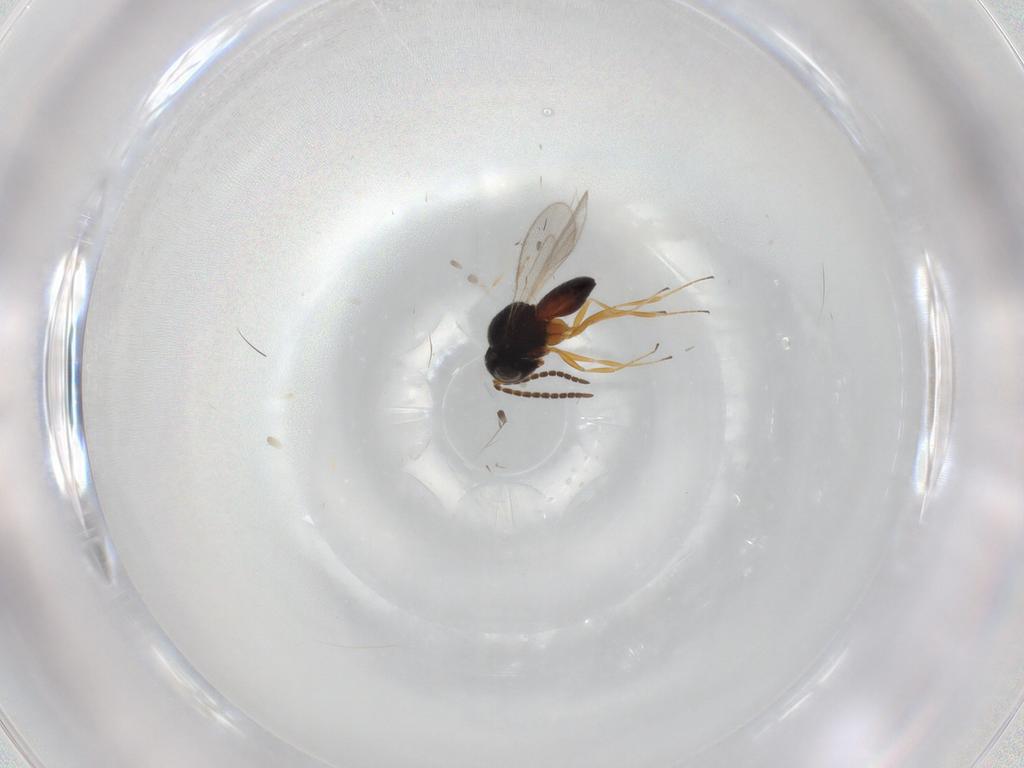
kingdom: Animalia
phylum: Arthropoda
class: Insecta
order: Hymenoptera
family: Scelionidae
